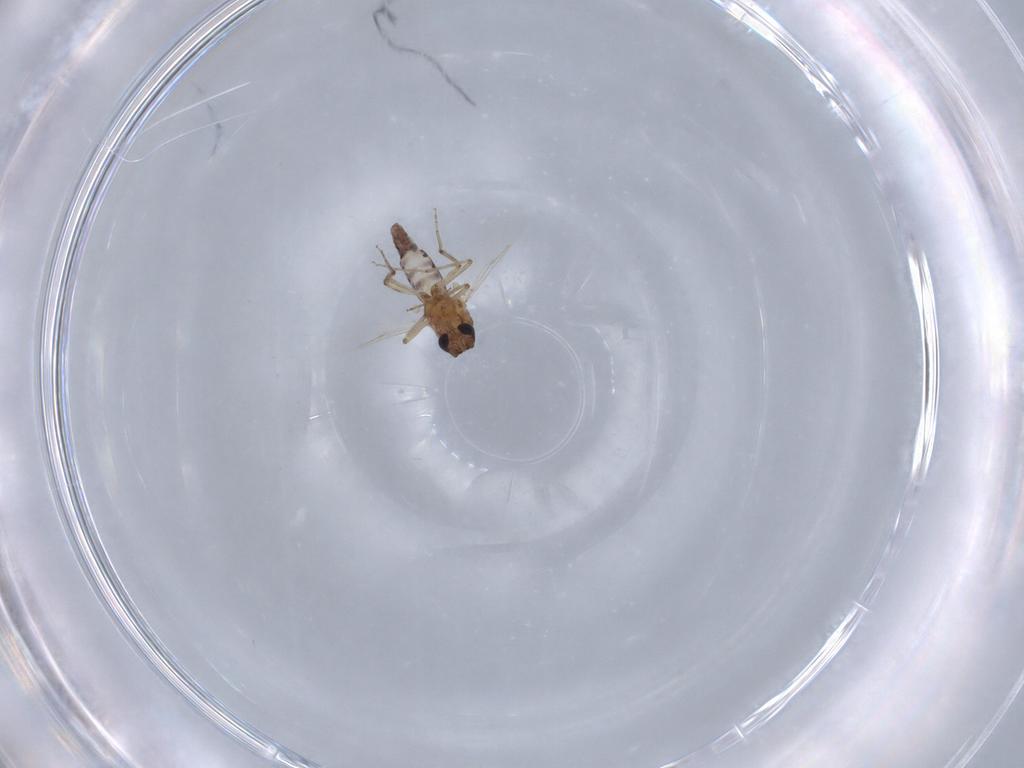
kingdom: Animalia
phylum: Arthropoda
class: Insecta
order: Diptera
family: Ceratopogonidae
